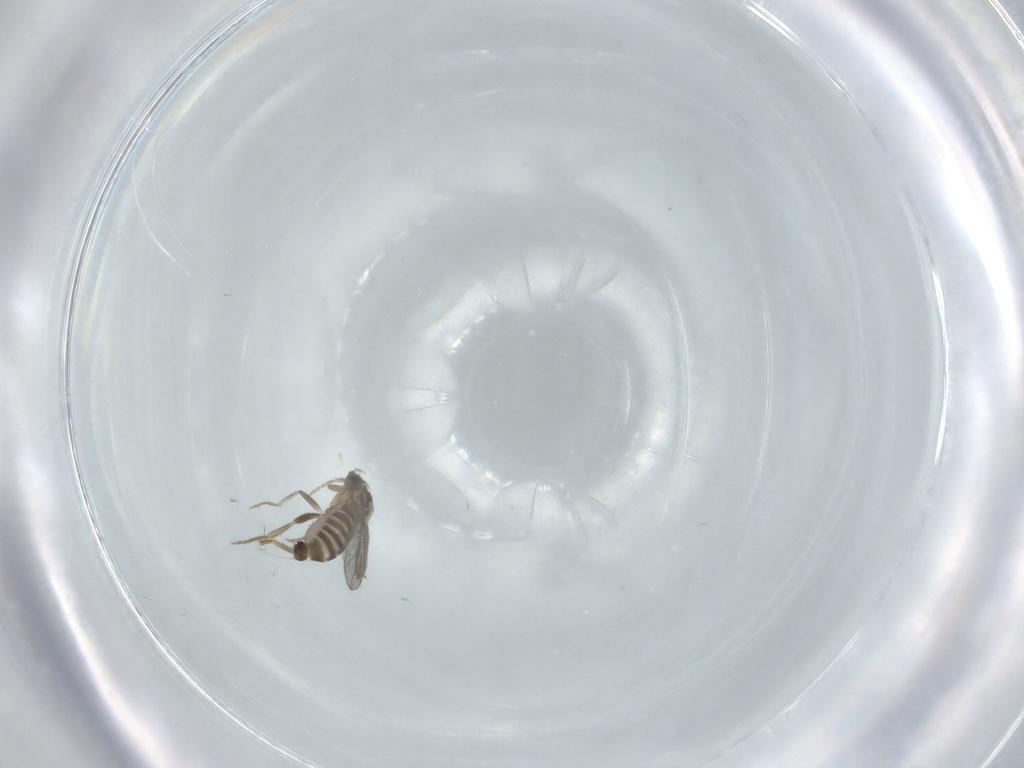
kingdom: Animalia
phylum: Arthropoda
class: Insecta
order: Diptera
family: Cecidomyiidae
